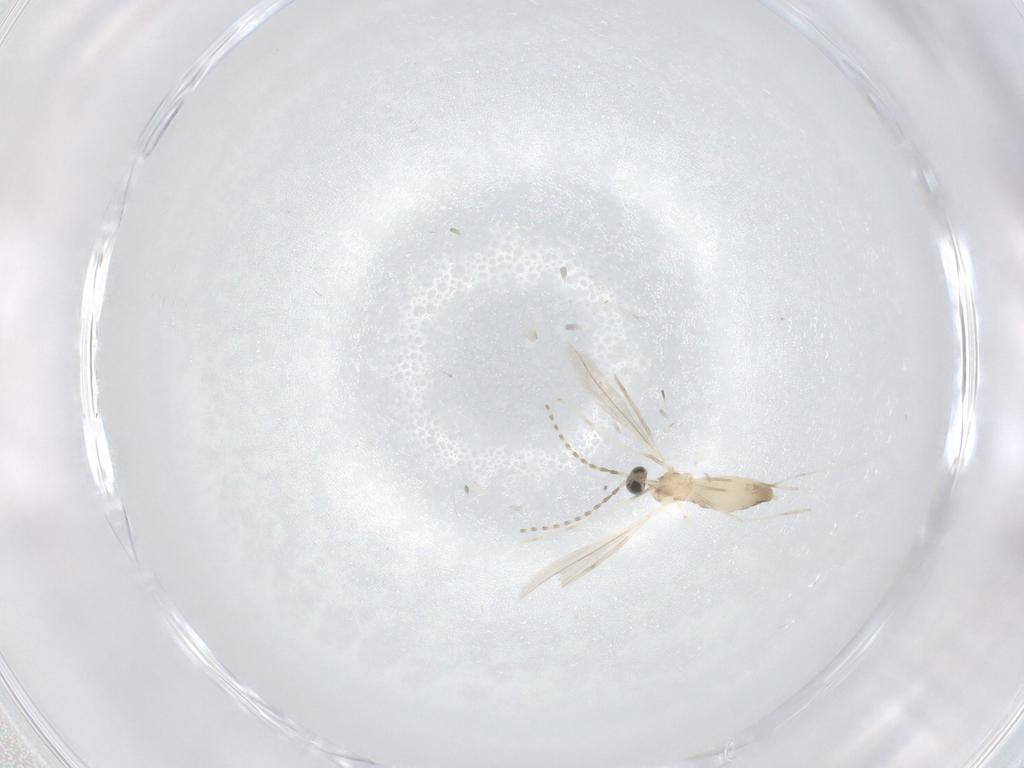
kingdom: Animalia
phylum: Arthropoda
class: Insecta
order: Diptera
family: Cecidomyiidae
